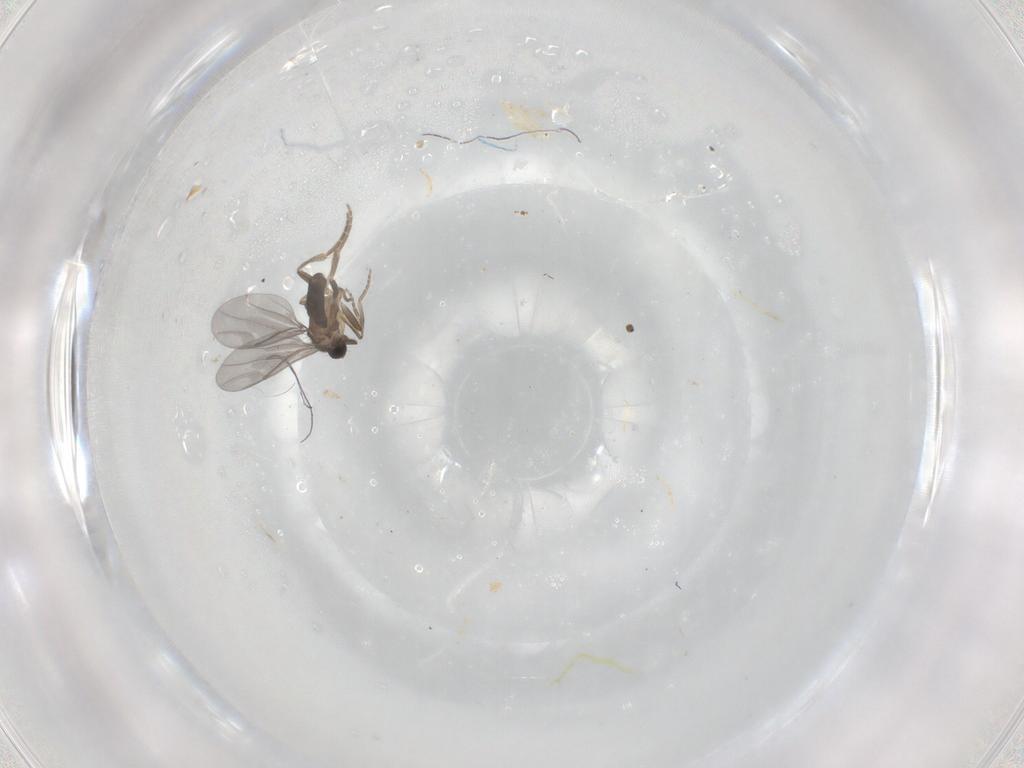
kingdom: Animalia
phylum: Arthropoda
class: Insecta
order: Diptera
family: Sciaridae
